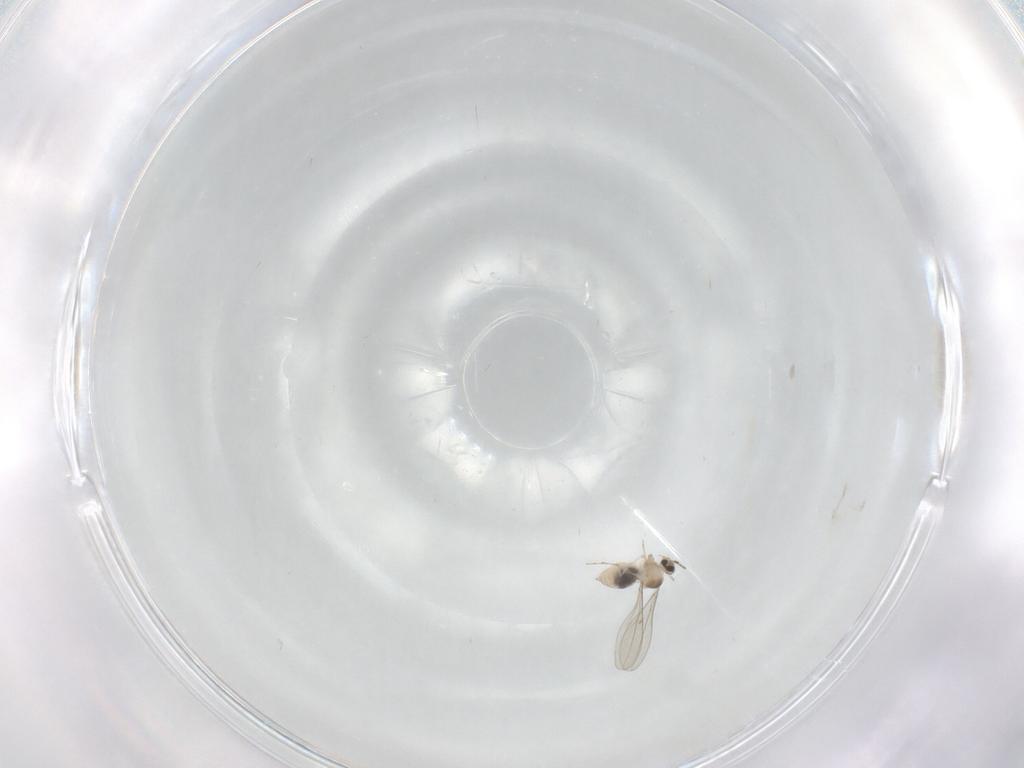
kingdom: Animalia
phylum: Arthropoda
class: Insecta
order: Diptera
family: Cecidomyiidae
